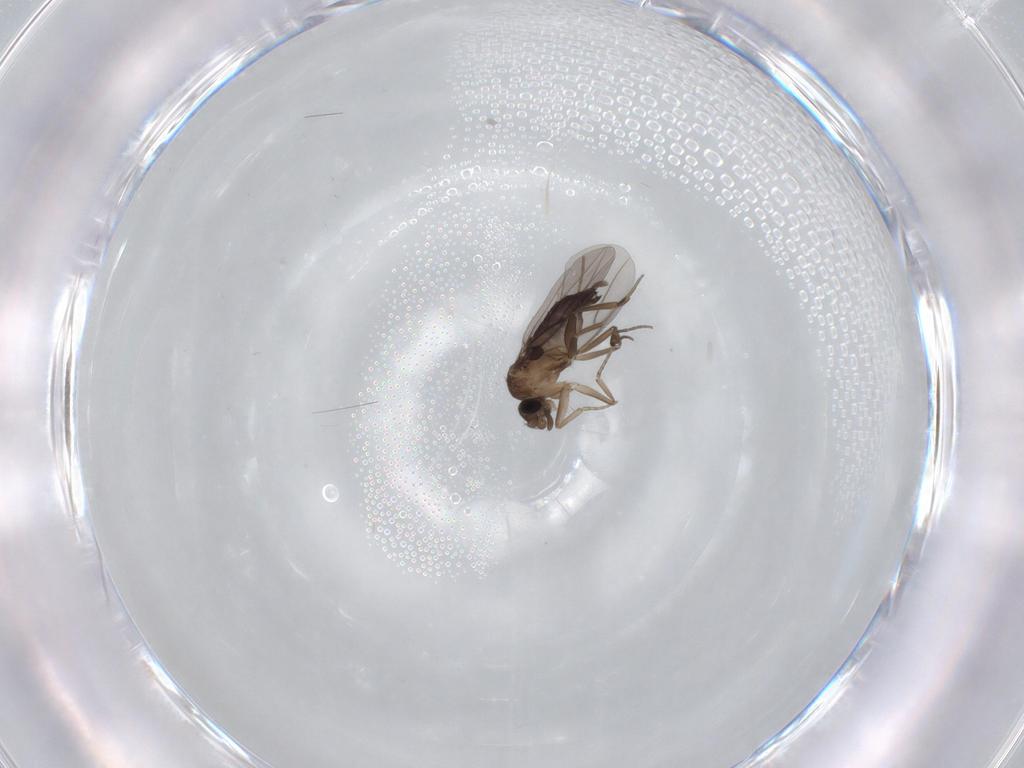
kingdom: Animalia
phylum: Arthropoda
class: Insecta
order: Diptera
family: Phoridae
